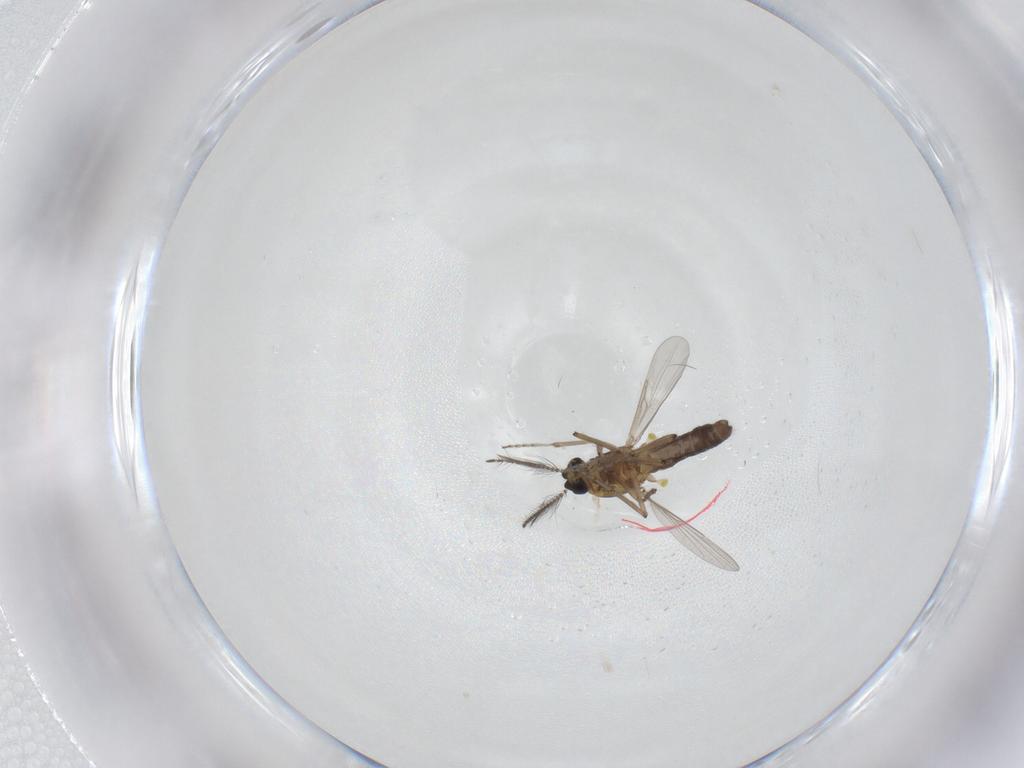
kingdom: Animalia
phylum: Arthropoda
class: Insecta
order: Diptera
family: Ceratopogonidae
